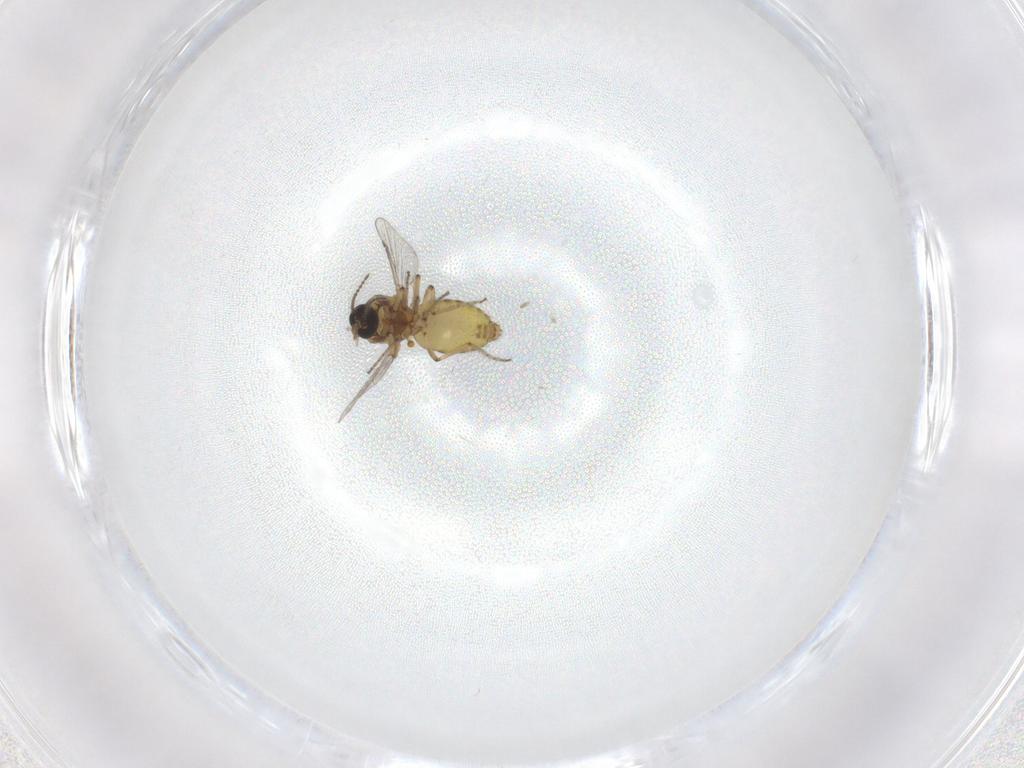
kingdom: Animalia
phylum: Arthropoda
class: Insecta
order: Diptera
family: Ceratopogonidae
